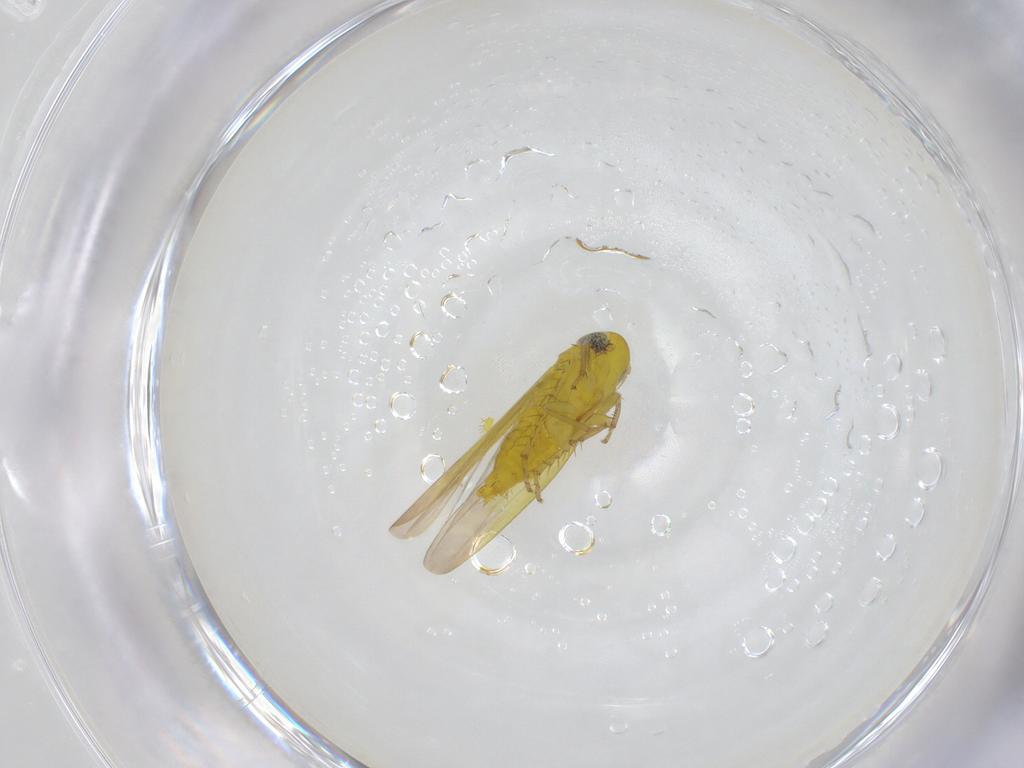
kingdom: Animalia
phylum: Arthropoda
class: Insecta
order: Hemiptera
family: Cicadellidae
